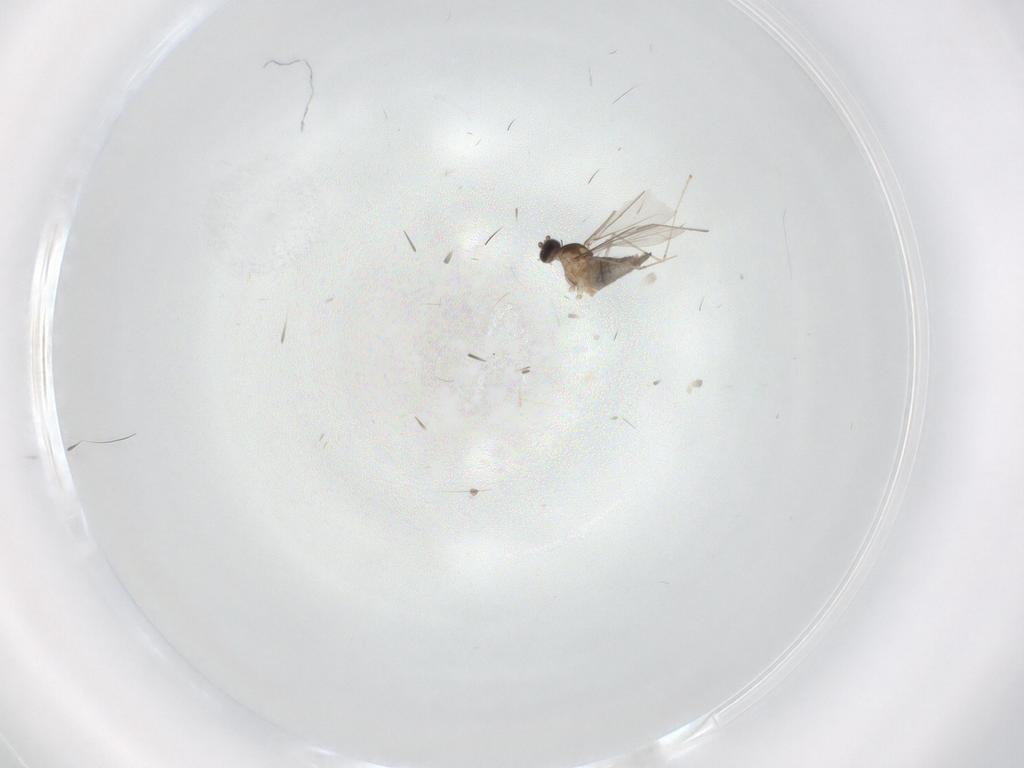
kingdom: Animalia
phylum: Arthropoda
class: Insecta
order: Diptera
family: Cecidomyiidae
